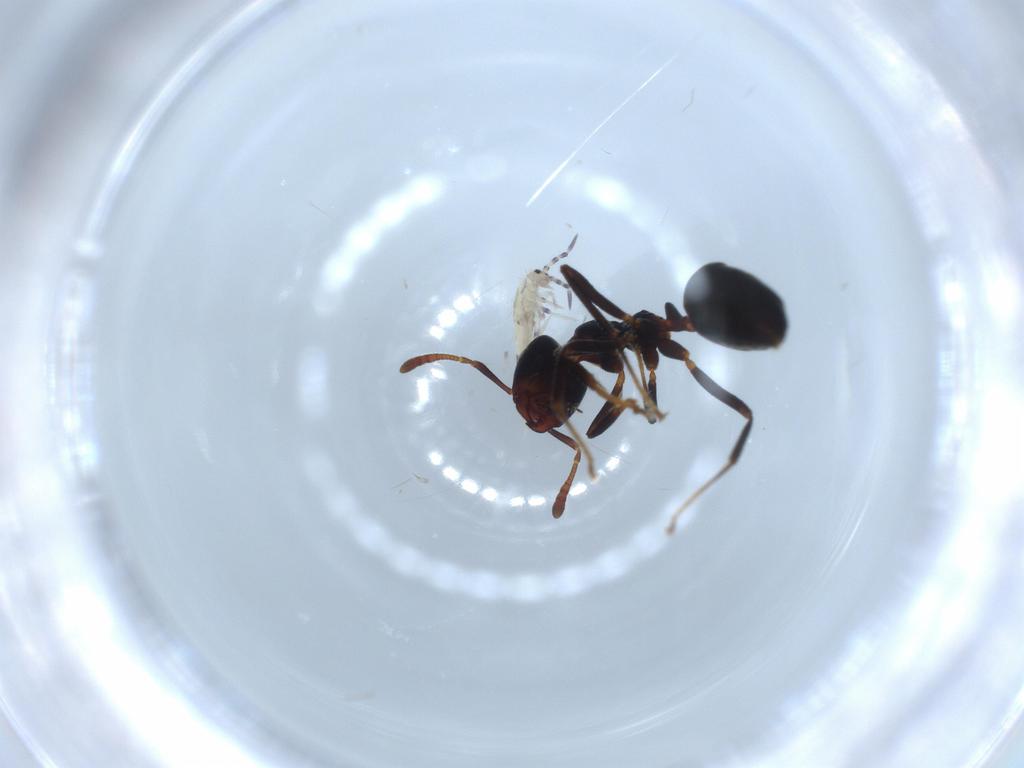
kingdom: Animalia
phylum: Arthropoda
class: Collembola
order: Entomobryomorpha
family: Entomobryidae
